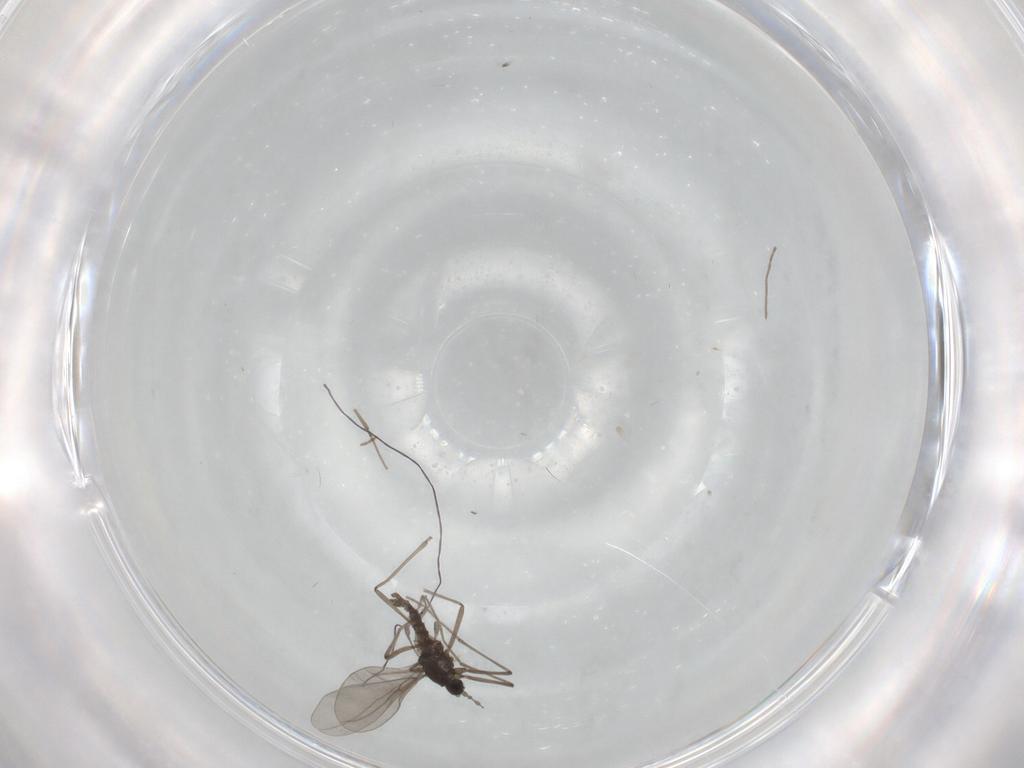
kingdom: Animalia
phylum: Arthropoda
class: Insecta
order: Diptera
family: Cecidomyiidae
